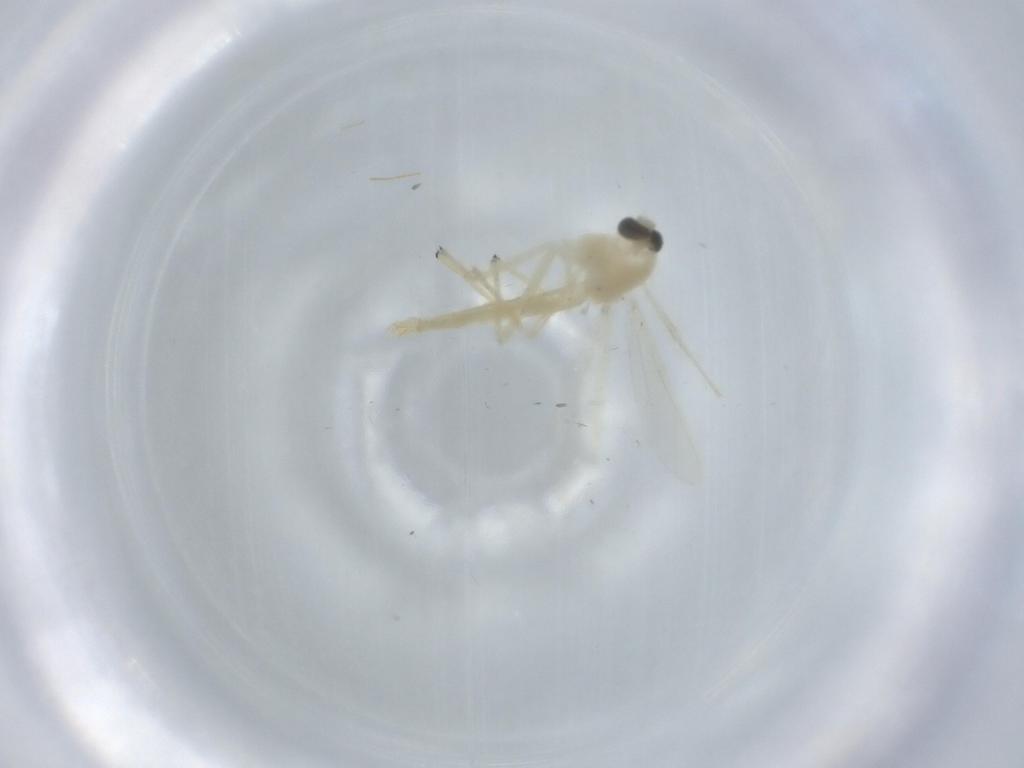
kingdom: Animalia
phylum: Arthropoda
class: Insecta
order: Diptera
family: Chironomidae
